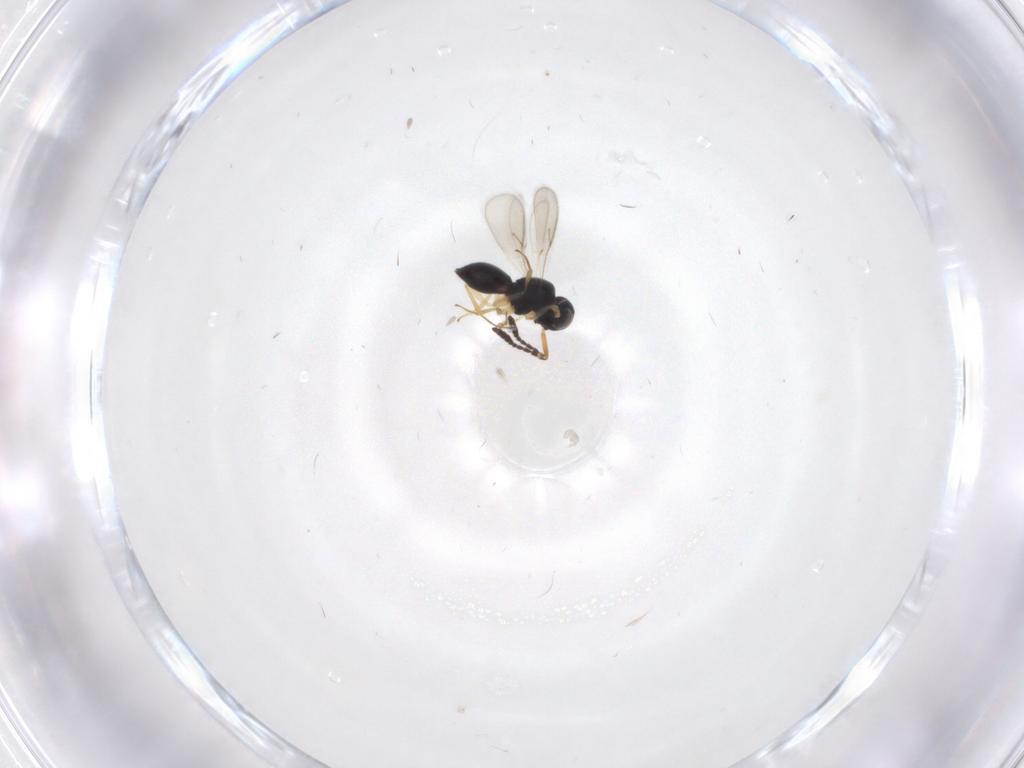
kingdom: Animalia
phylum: Arthropoda
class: Insecta
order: Hymenoptera
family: Scelionidae
